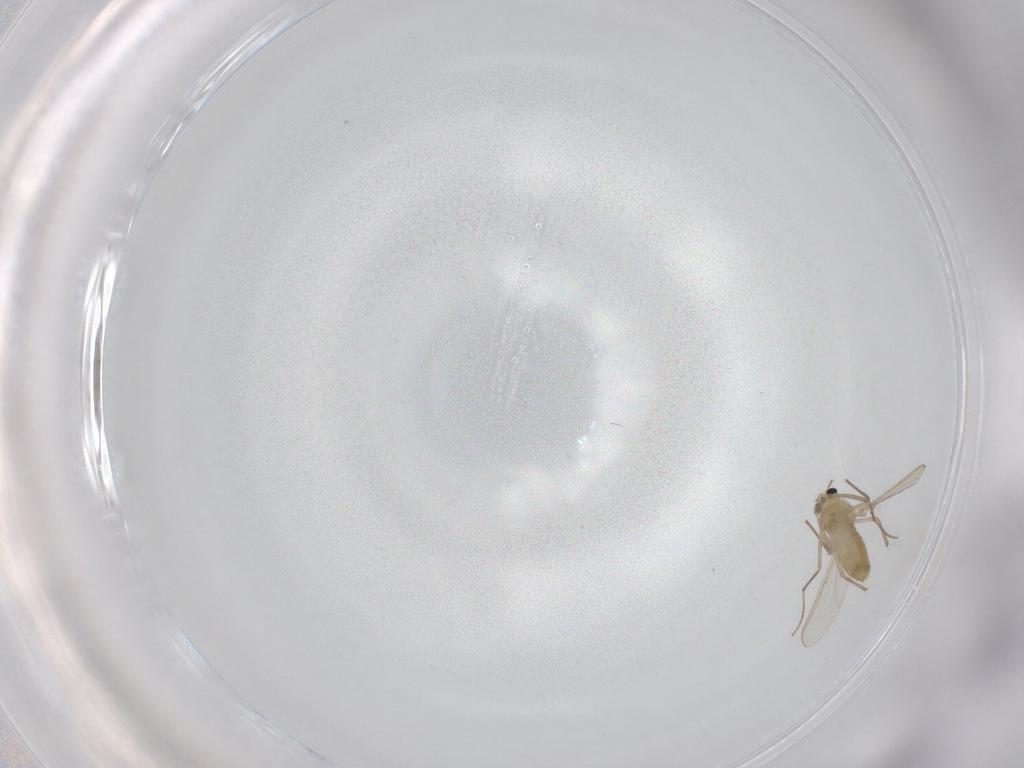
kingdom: Animalia
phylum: Arthropoda
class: Insecta
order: Diptera
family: Chironomidae
